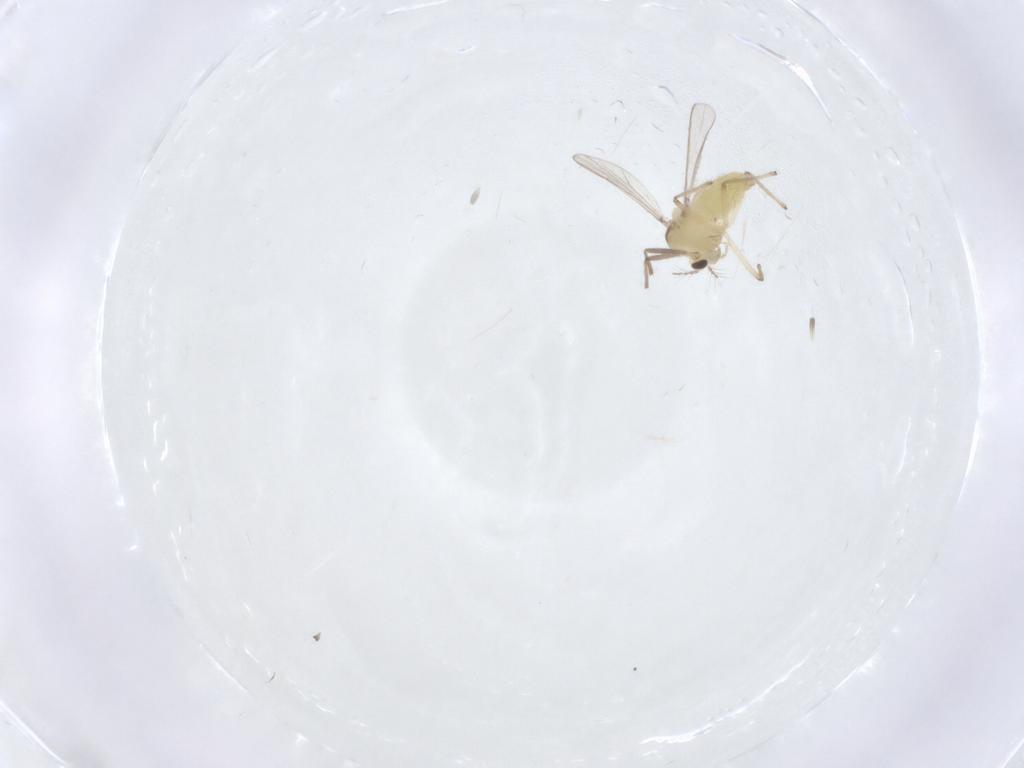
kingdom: Animalia
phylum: Arthropoda
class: Insecta
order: Diptera
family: Chironomidae
